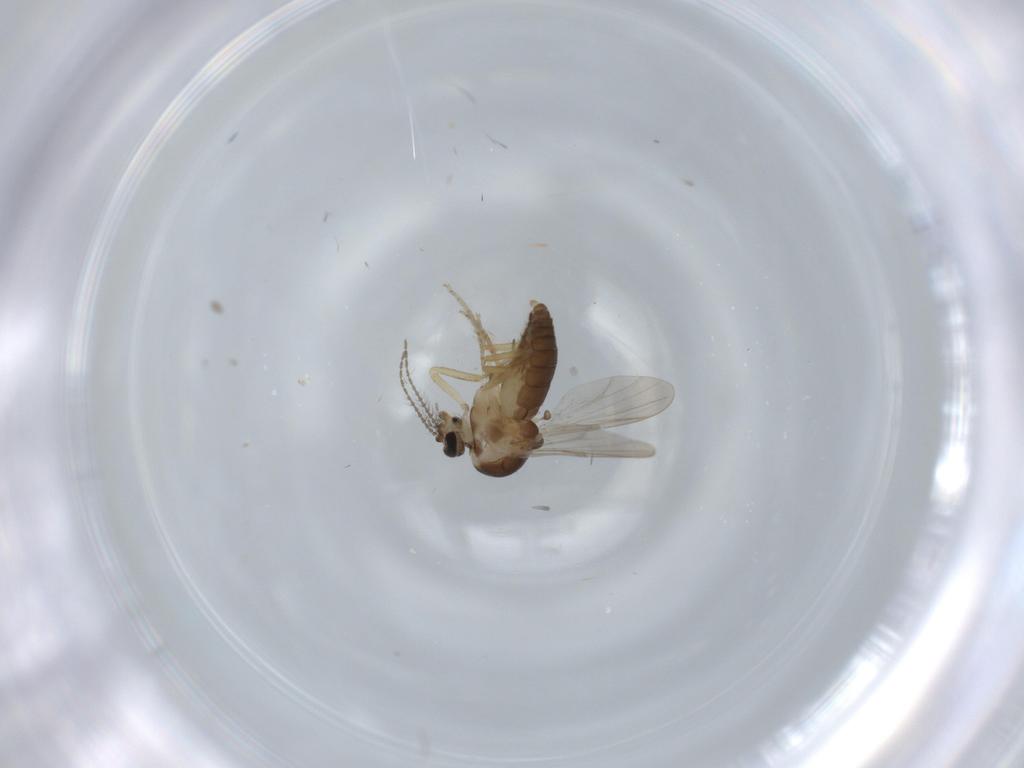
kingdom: Animalia
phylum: Arthropoda
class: Insecta
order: Diptera
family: Ceratopogonidae
